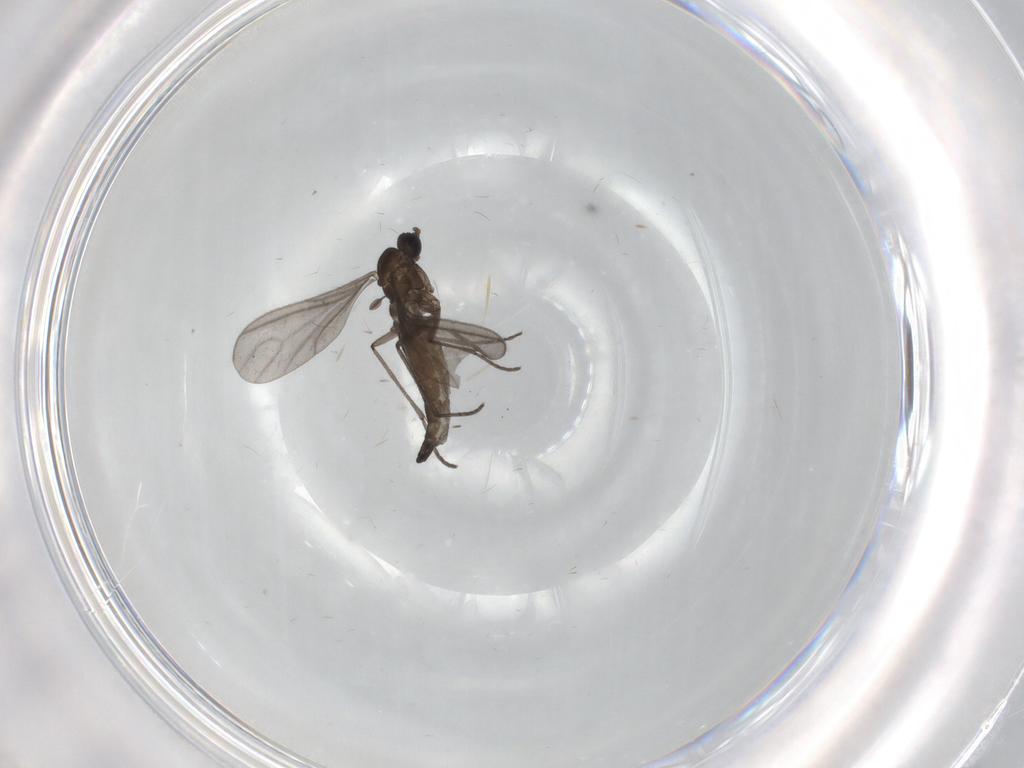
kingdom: Animalia
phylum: Arthropoda
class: Insecta
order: Diptera
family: Sciaridae
